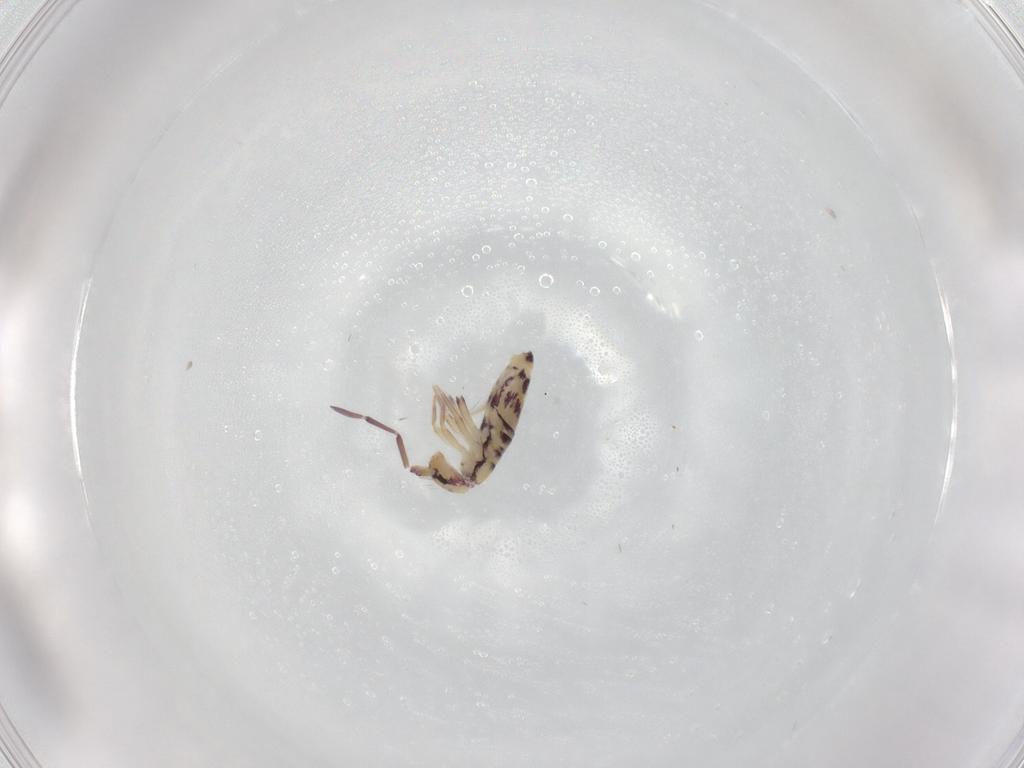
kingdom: Animalia
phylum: Arthropoda
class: Collembola
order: Entomobryomorpha
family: Entomobryidae
